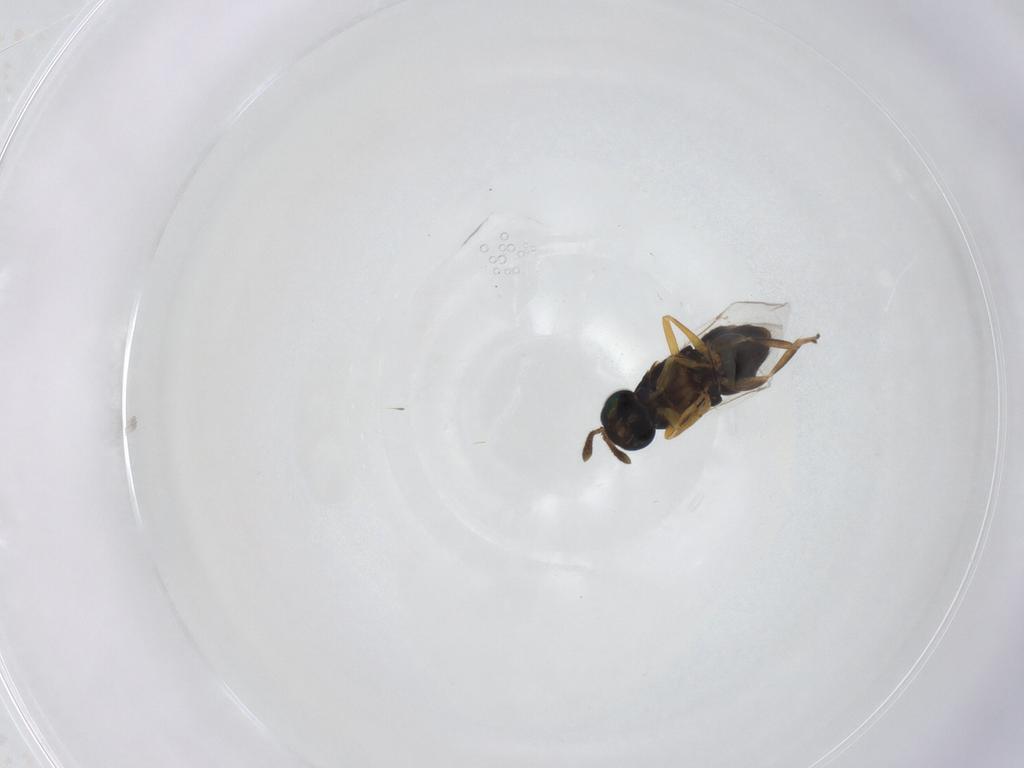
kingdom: Animalia
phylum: Arthropoda
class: Insecta
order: Hymenoptera
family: Encyrtidae
